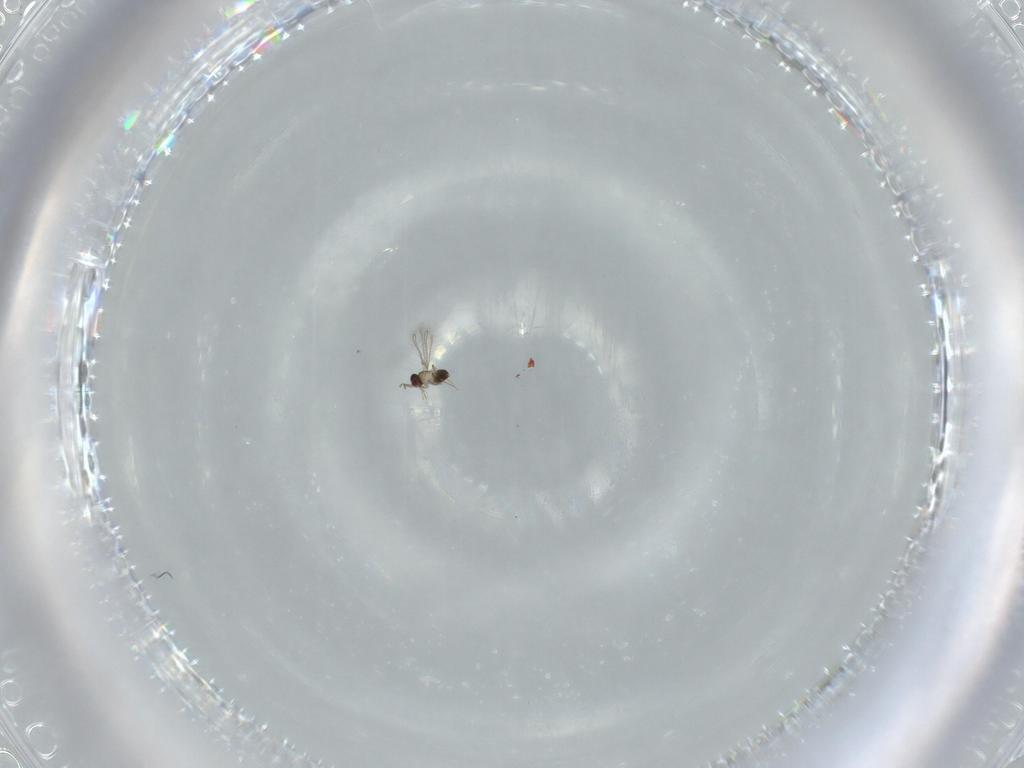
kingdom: Animalia
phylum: Arthropoda
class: Insecta
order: Hymenoptera
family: Mymaridae
